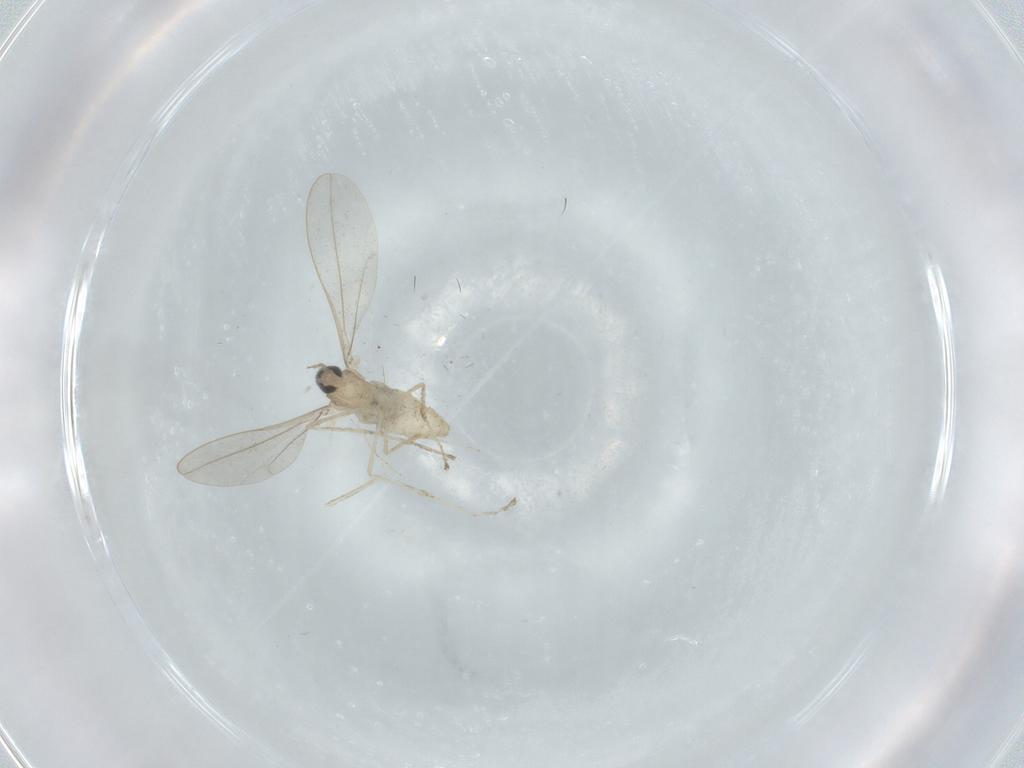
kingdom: Animalia
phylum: Arthropoda
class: Insecta
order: Diptera
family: Cecidomyiidae
